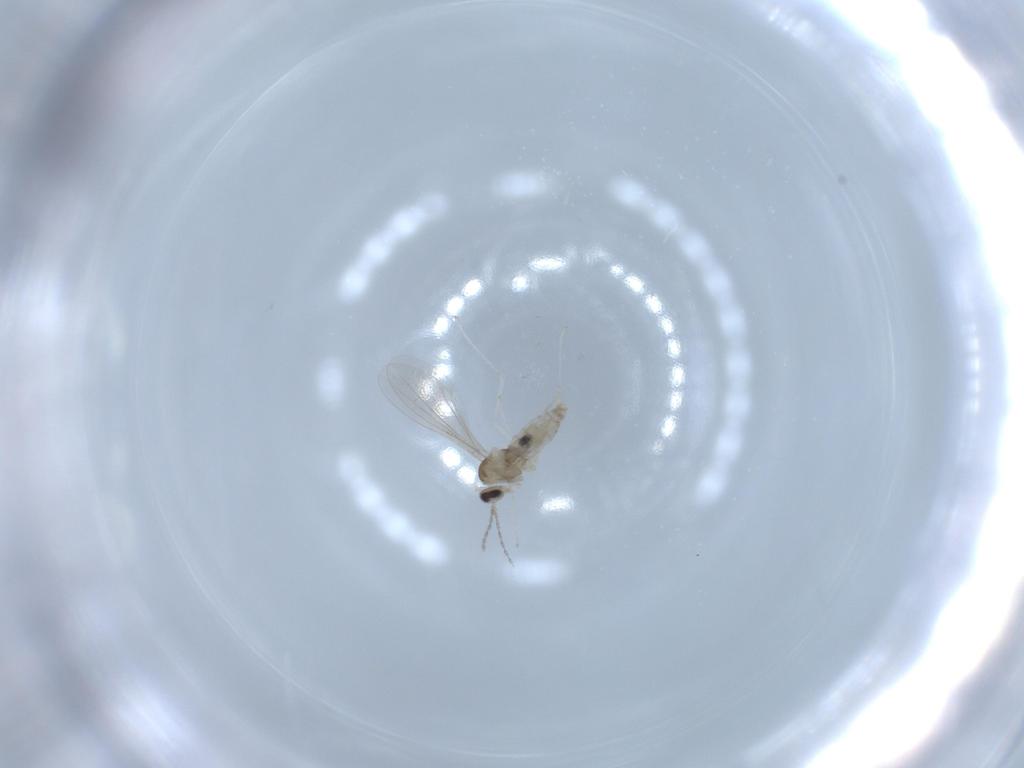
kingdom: Animalia
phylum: Arthropoda
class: Insecta
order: Diptera
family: Cecidomyiidae
